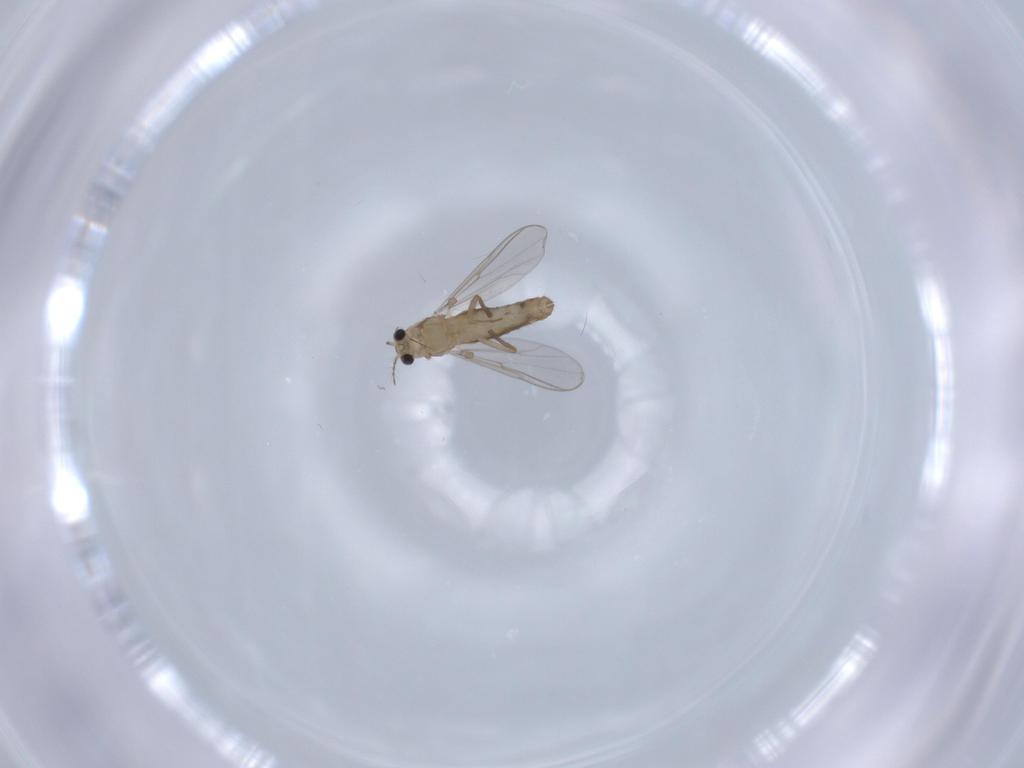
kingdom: Animalia
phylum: Arthropoda
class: Insecta
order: Diptera
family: Chironomidae
